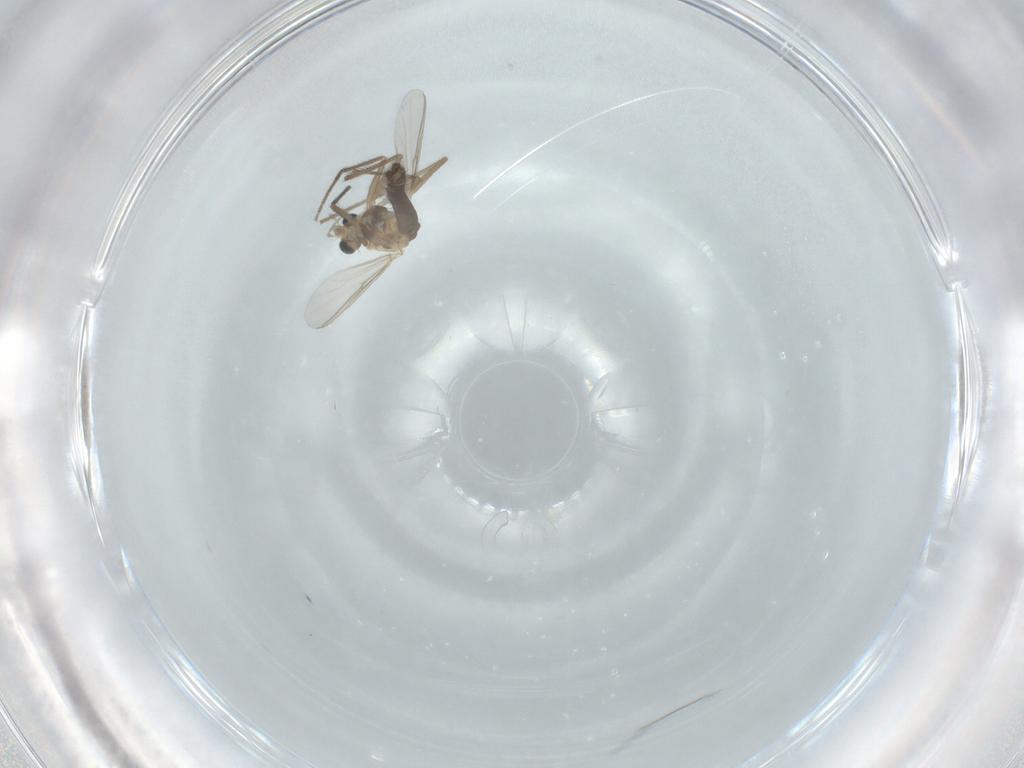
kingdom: Animalia
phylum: Arthropoda
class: Insecta
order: Diptera
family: Chironomidae
